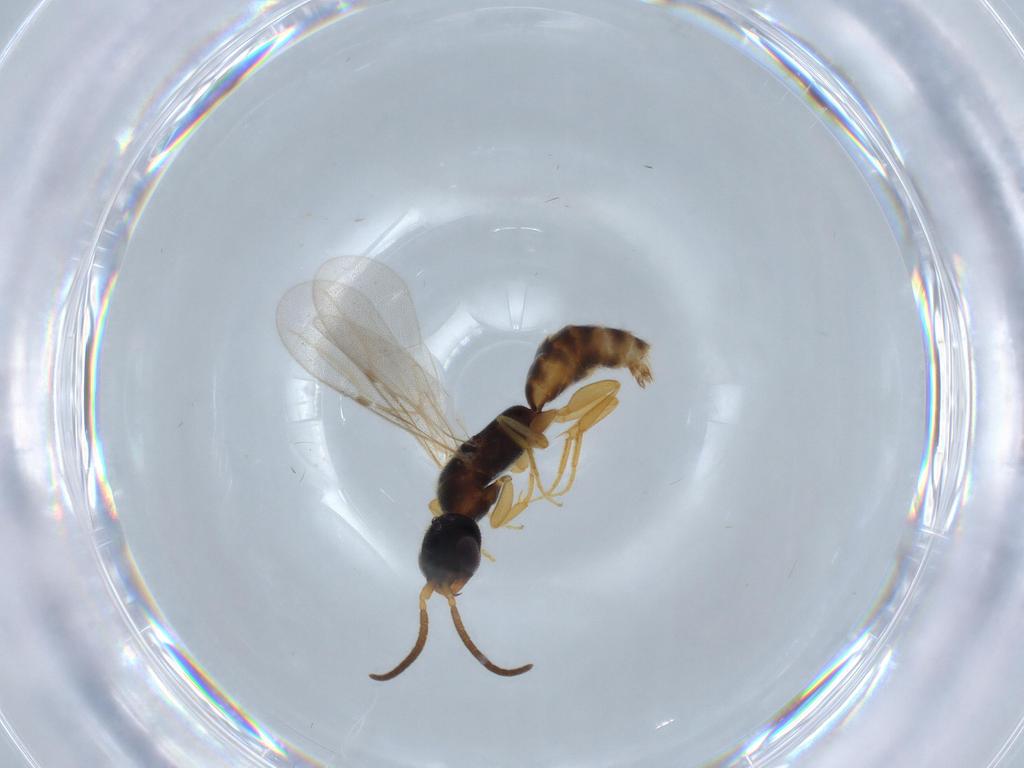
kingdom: Animalia
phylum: Arthropoda
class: Insecta
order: Hymenoptera
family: Bethylidae
